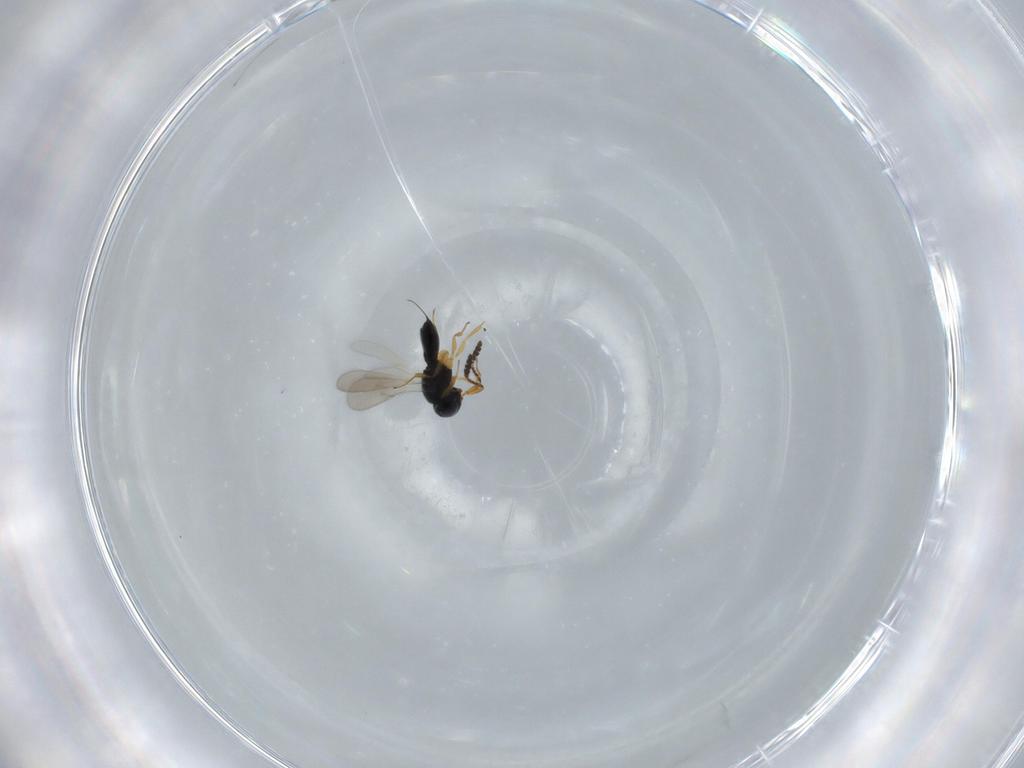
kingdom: Animalia
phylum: Arthropoda
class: Insecta
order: Hymenoptera
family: Scelionidae
